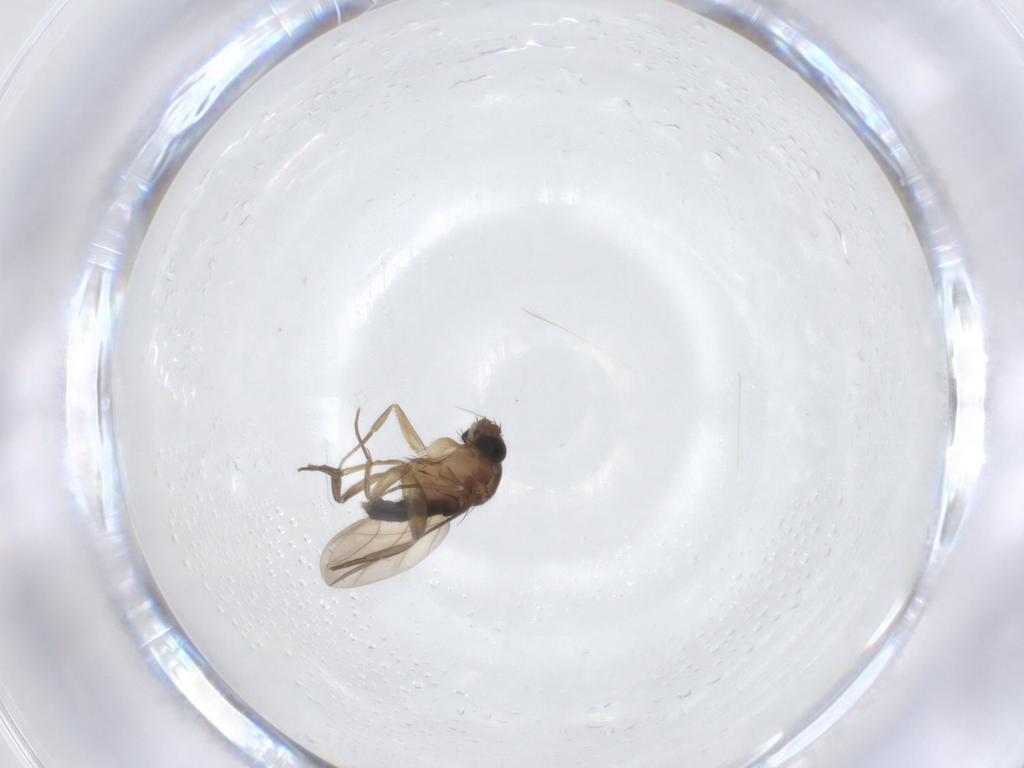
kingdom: Animalia
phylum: Arthropoda
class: Insecta
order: Diptera
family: Phoridae
